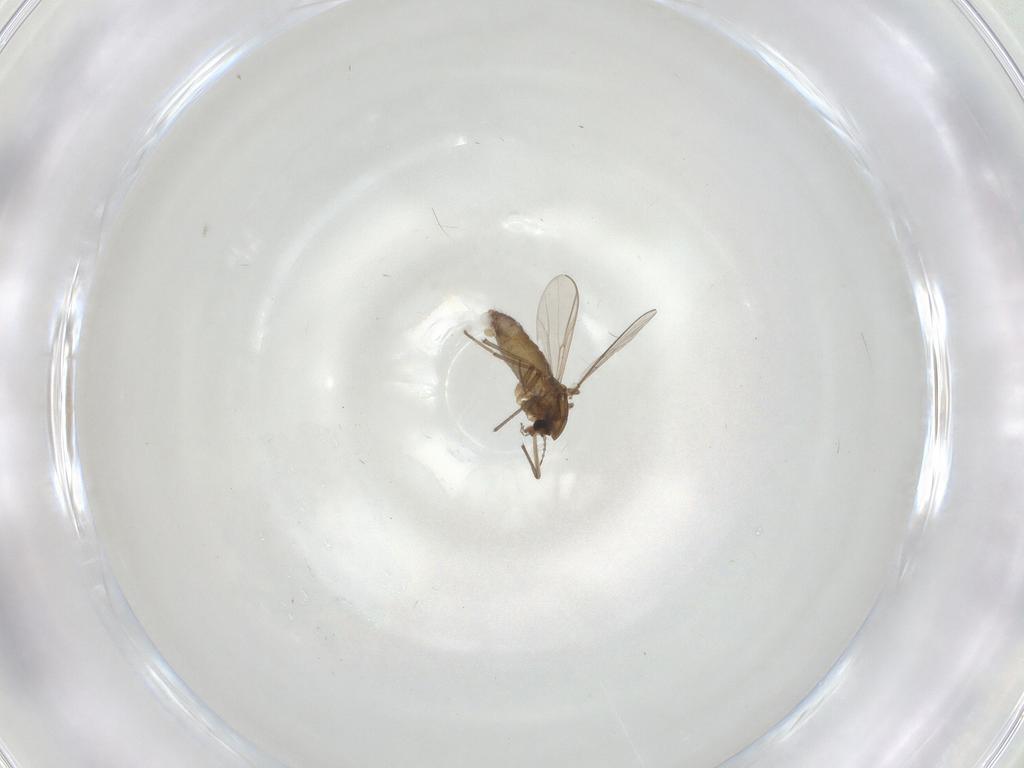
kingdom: Animalia
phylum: Arthropoda
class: Insecta
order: Diptera
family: Chironomidae
